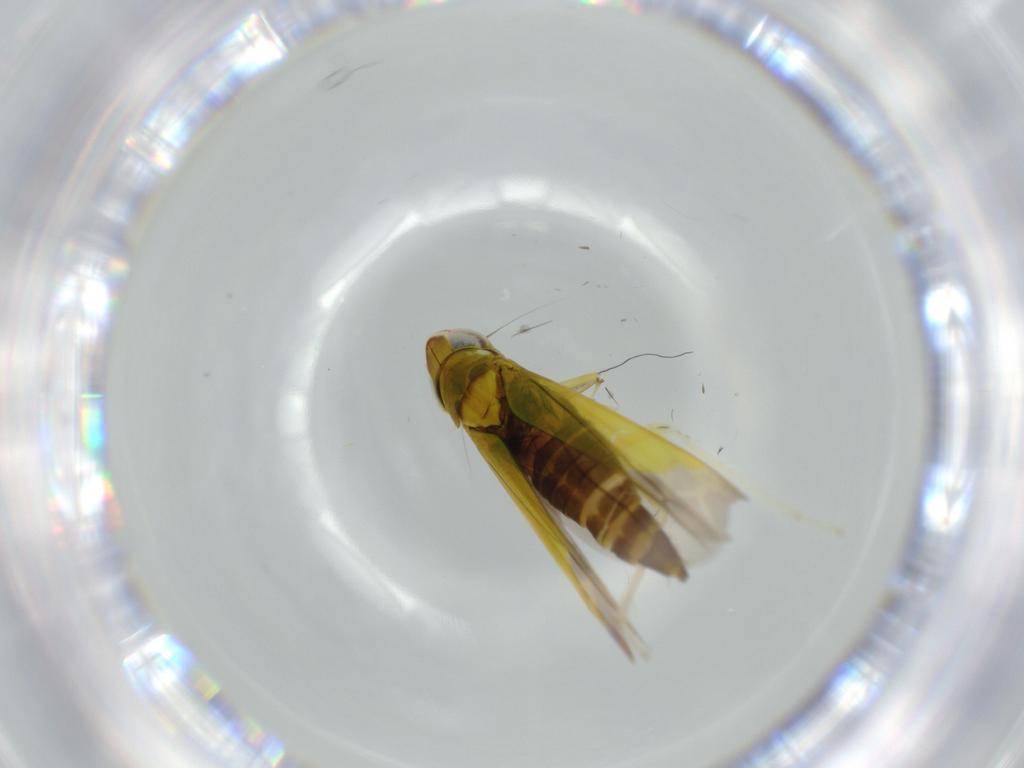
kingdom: Animalia
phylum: Arthropoda
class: Insecta
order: Hemiptera
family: Cicadellidae
